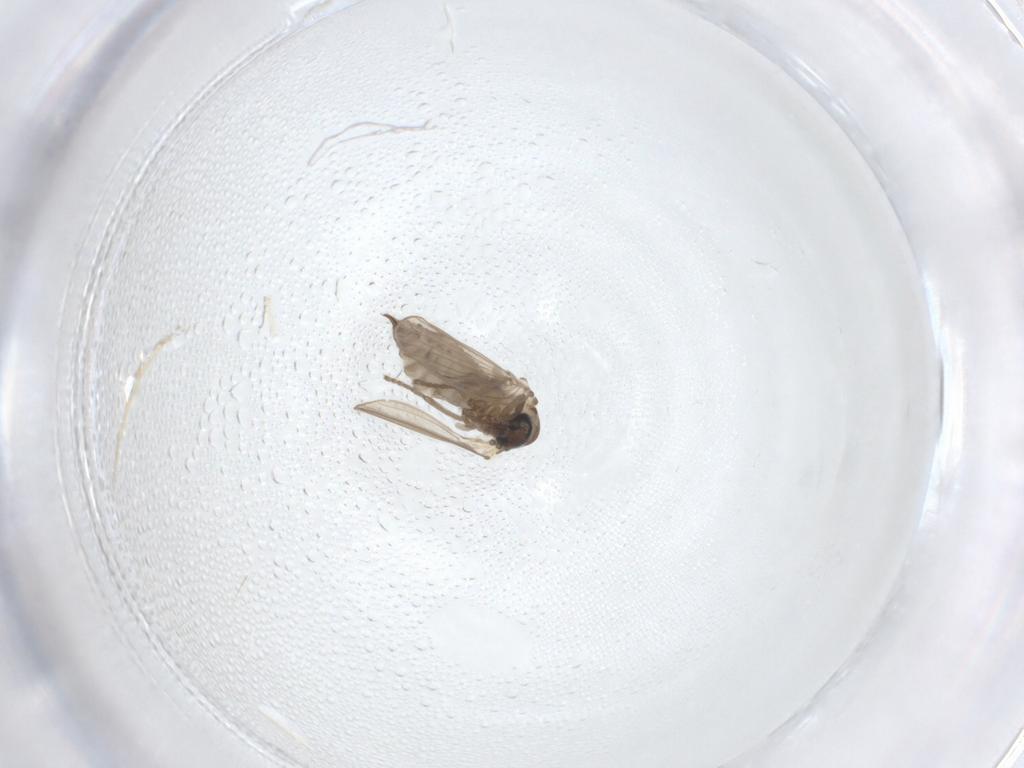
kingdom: Animalia
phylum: Arthropoda
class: Insecta
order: Diptera
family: Psychodidae
